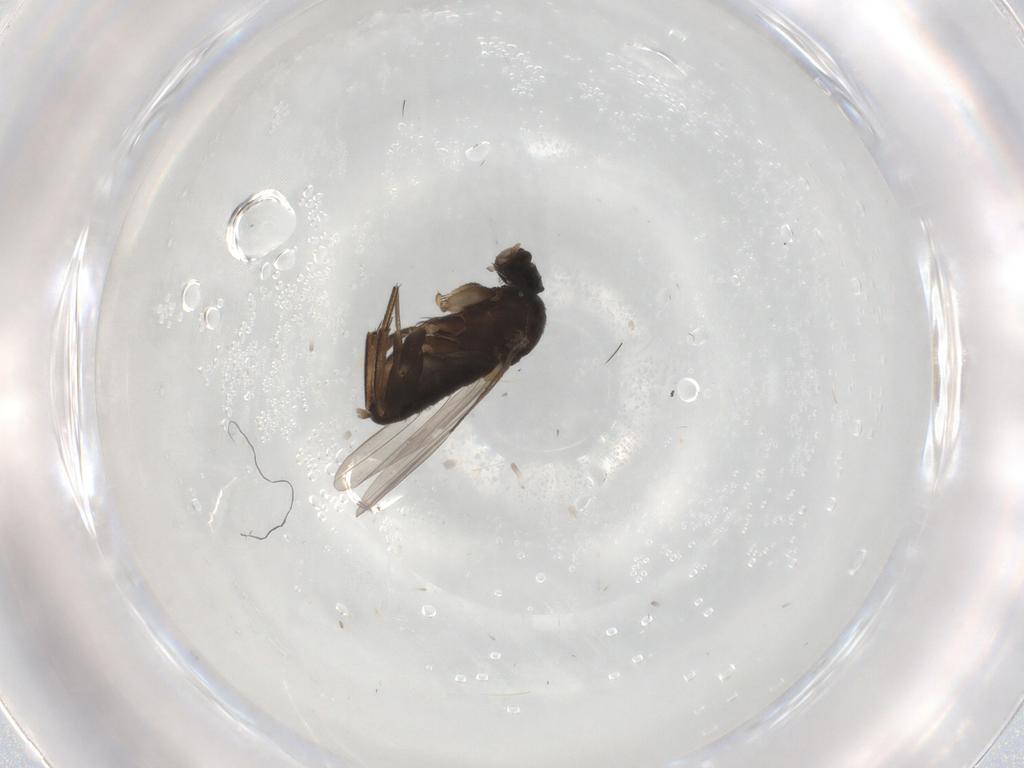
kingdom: Animalia
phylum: Arthropoda
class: Insecta
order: Diptera
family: Phoridae
